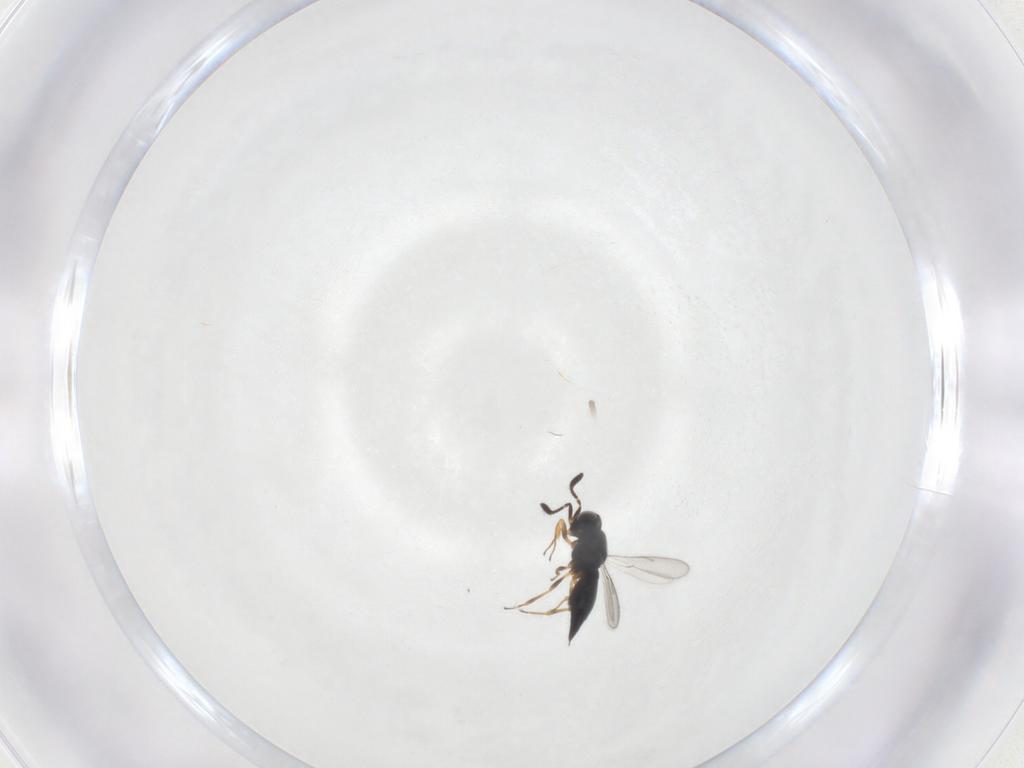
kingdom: Animalia
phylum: Arthropoda
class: Insecta
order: Hymenoptera
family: Scelionidae
